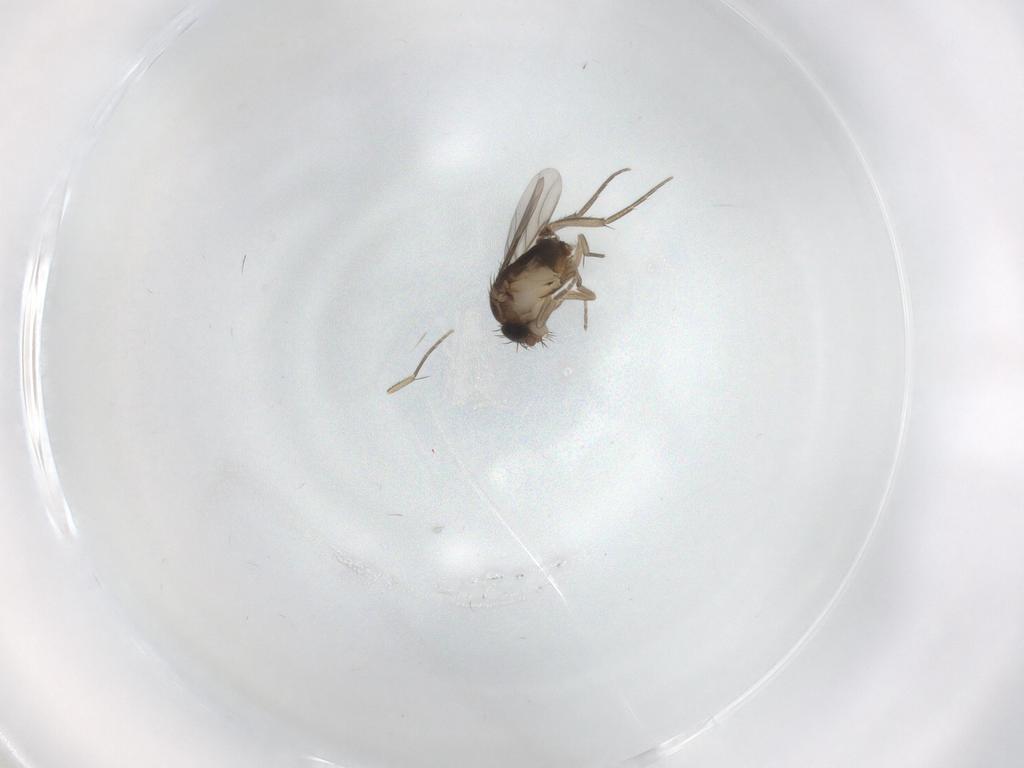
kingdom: Animalia
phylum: Arthropoda
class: Insecta
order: Diptera
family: Phoridae
